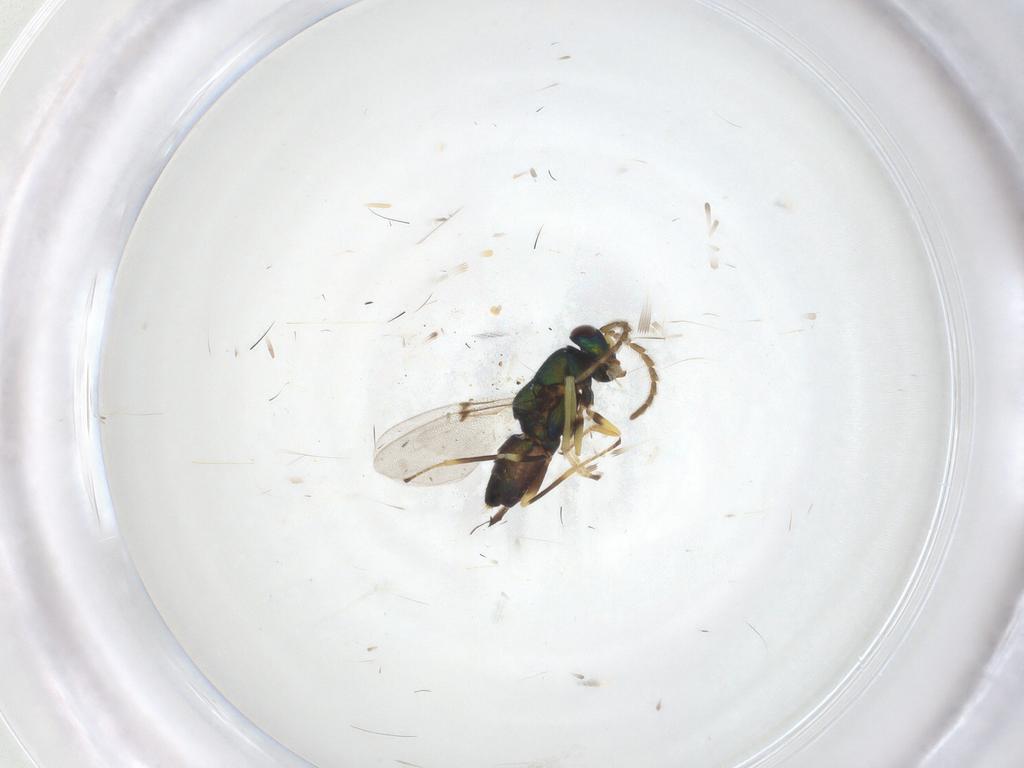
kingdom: Animalia
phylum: Arthropoda
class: Insecta
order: Hymenoptera
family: Encyrtidae
